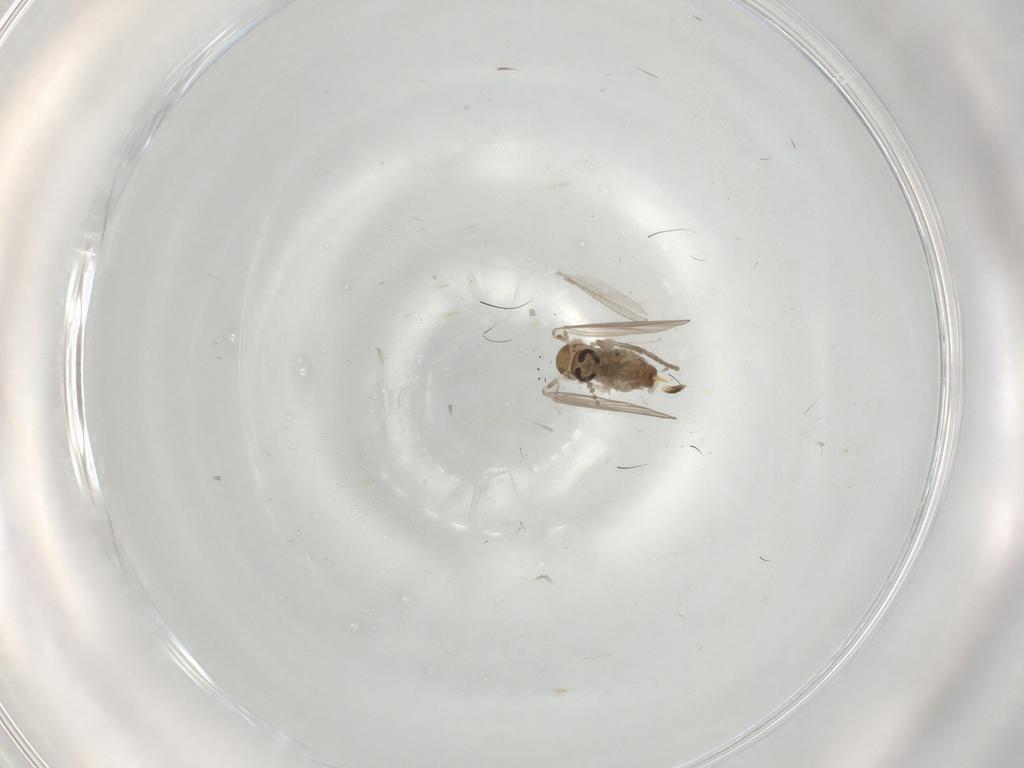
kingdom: Animalia
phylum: Arthropoda
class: Insecta
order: Diptera
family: Psychodidae
